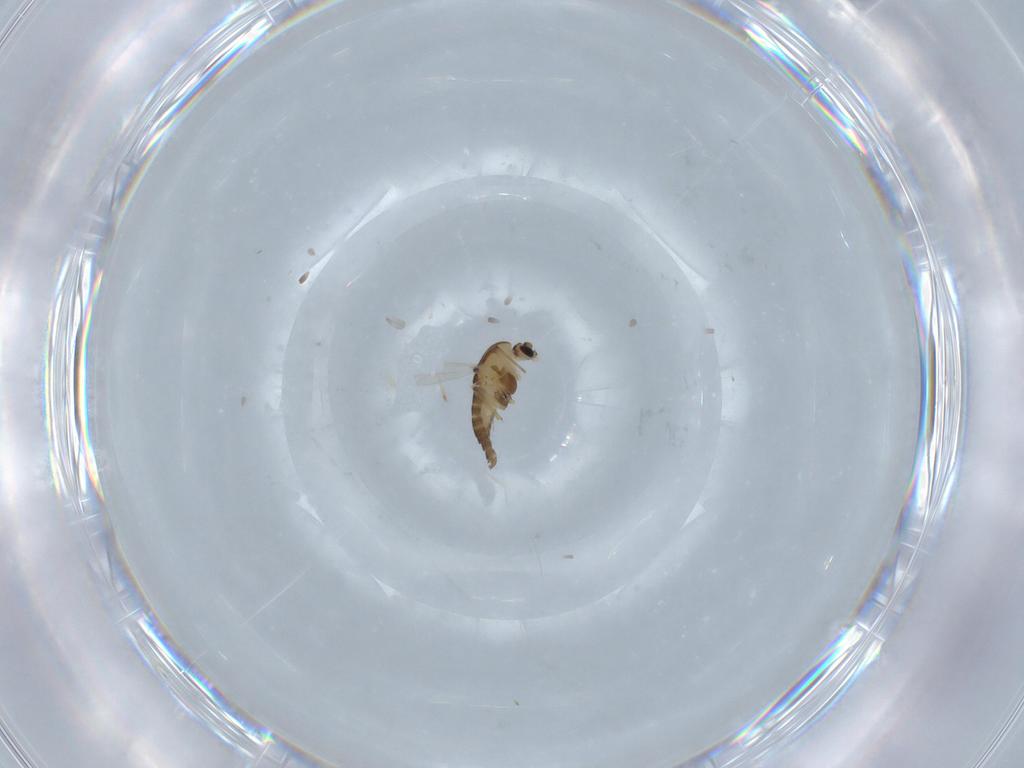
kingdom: Animalia
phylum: Arthropoda
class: Insecta
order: Diptera
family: Chironomidae
